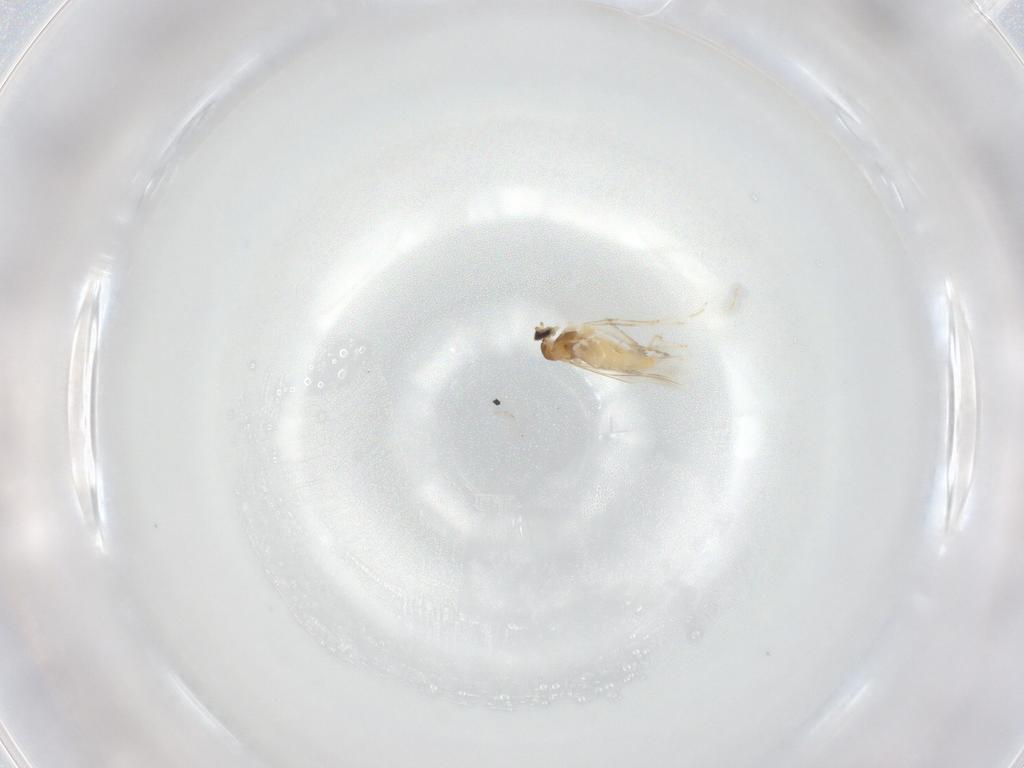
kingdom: Animalia
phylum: Arthropoda
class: Insecta
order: Diptera
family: Cecidomyiidae
